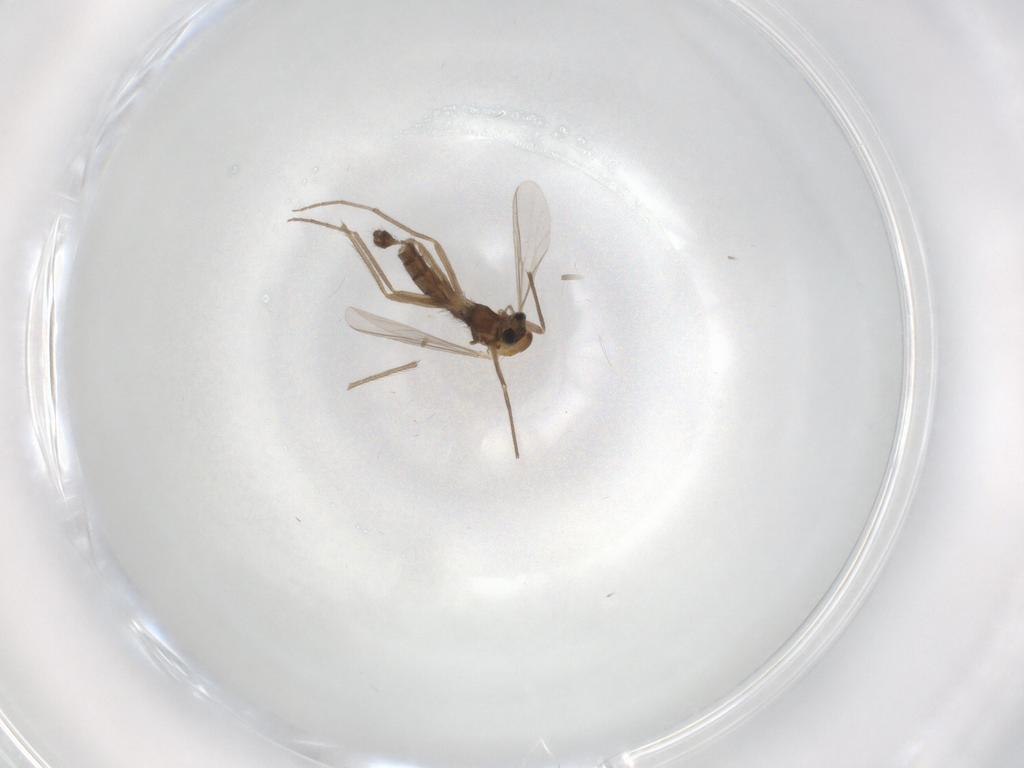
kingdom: Animalia
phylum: Arthropoda
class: Insecta
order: Diptera
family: Chironomidae
